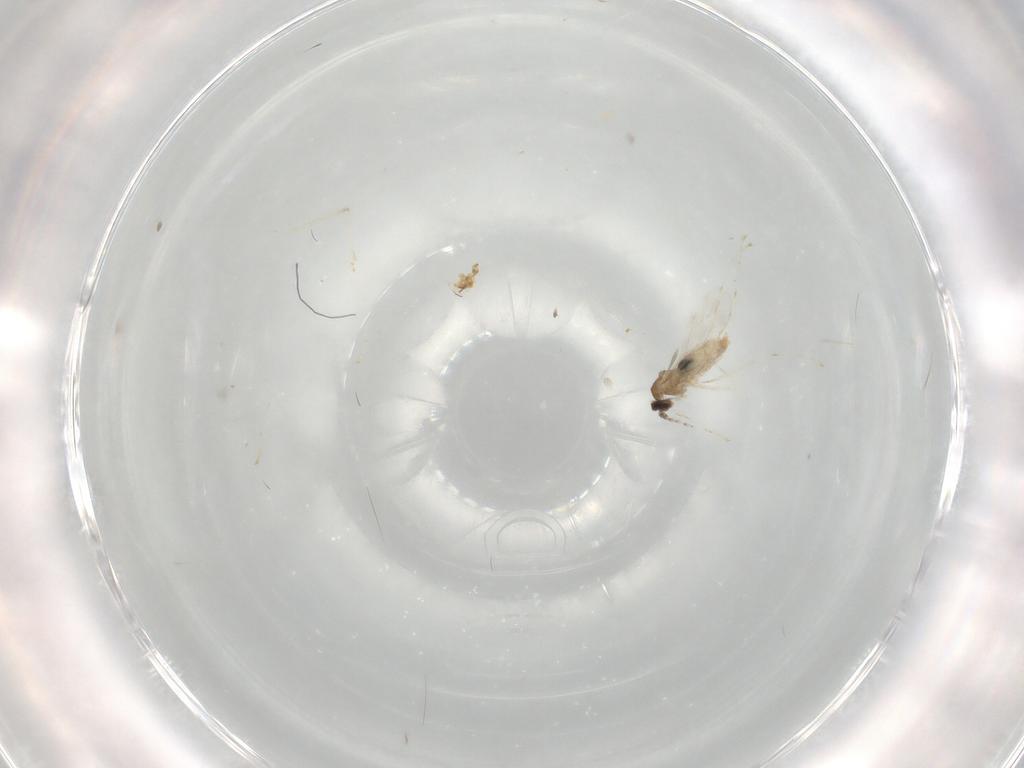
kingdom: Animalia
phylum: Arthropoda
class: Insecta
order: Diptera
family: Cecidomyiidae
